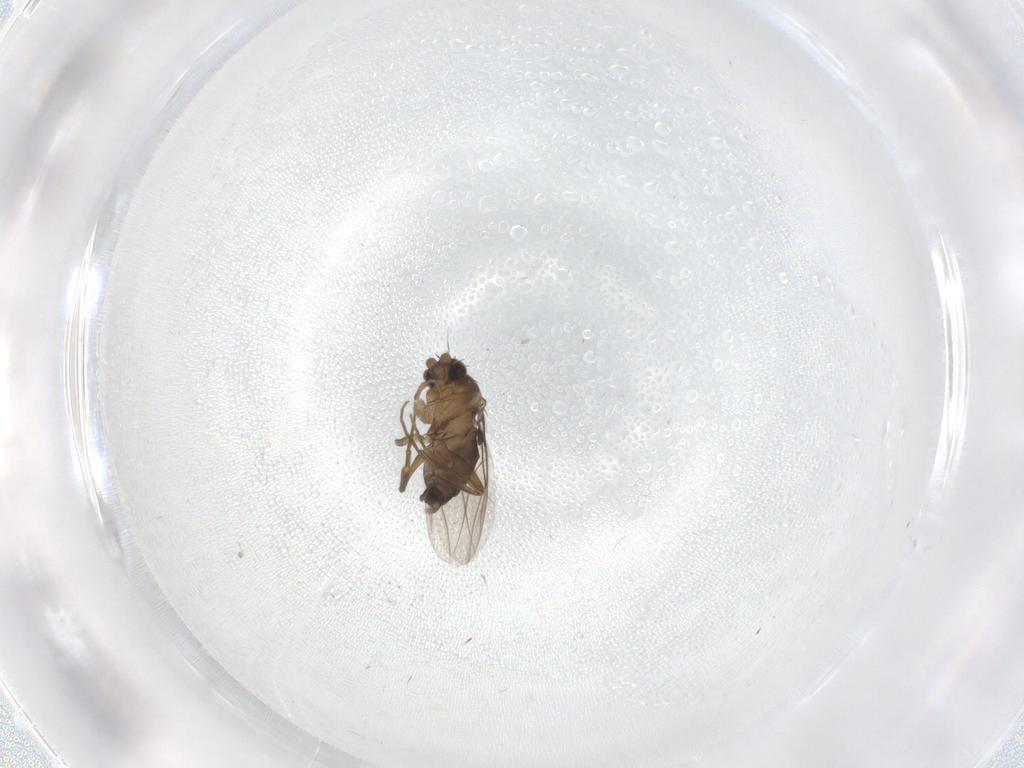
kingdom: Animalia
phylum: Arthropoda
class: Insecta
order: Diptera
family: Phoridae
